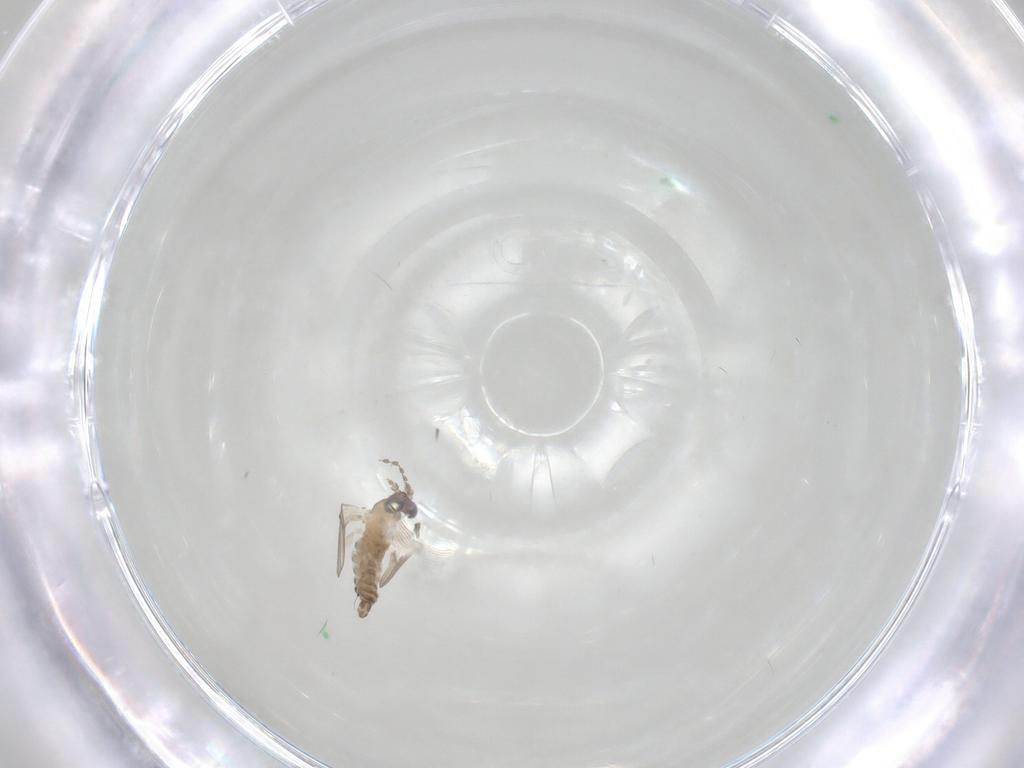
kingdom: Animalia
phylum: Arthropoda
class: Insecta
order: Diptera
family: Muscidae
